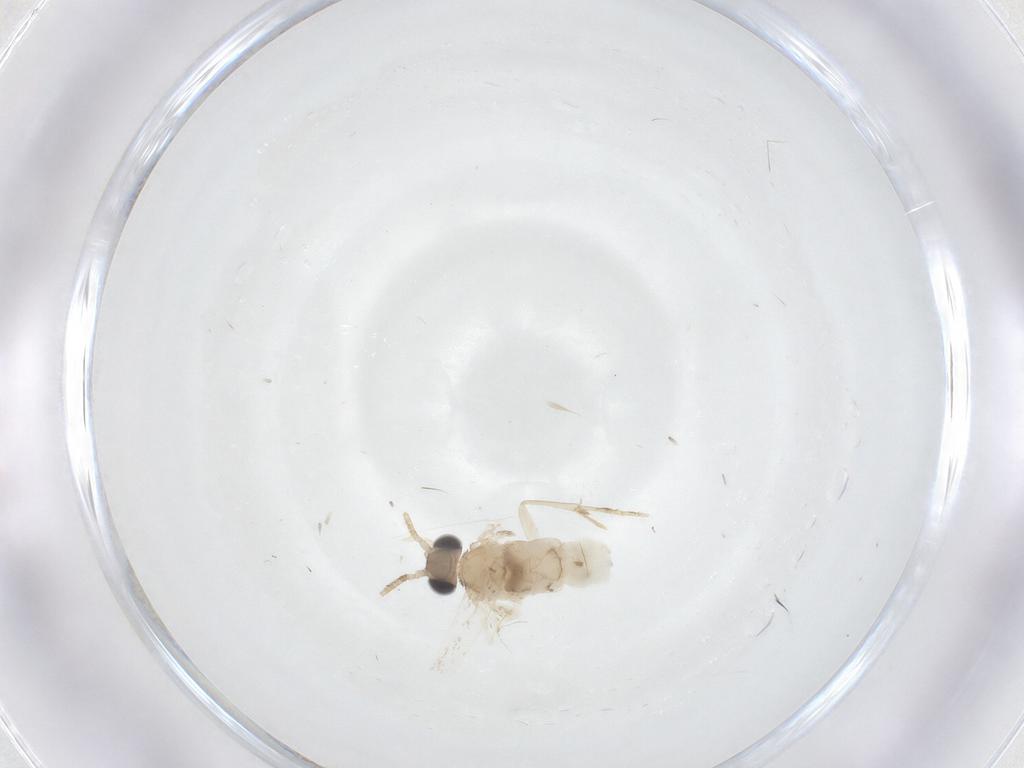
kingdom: Animalia
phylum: Arthropoda
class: Insecta
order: Lepidoptera
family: Dryadaulidae
